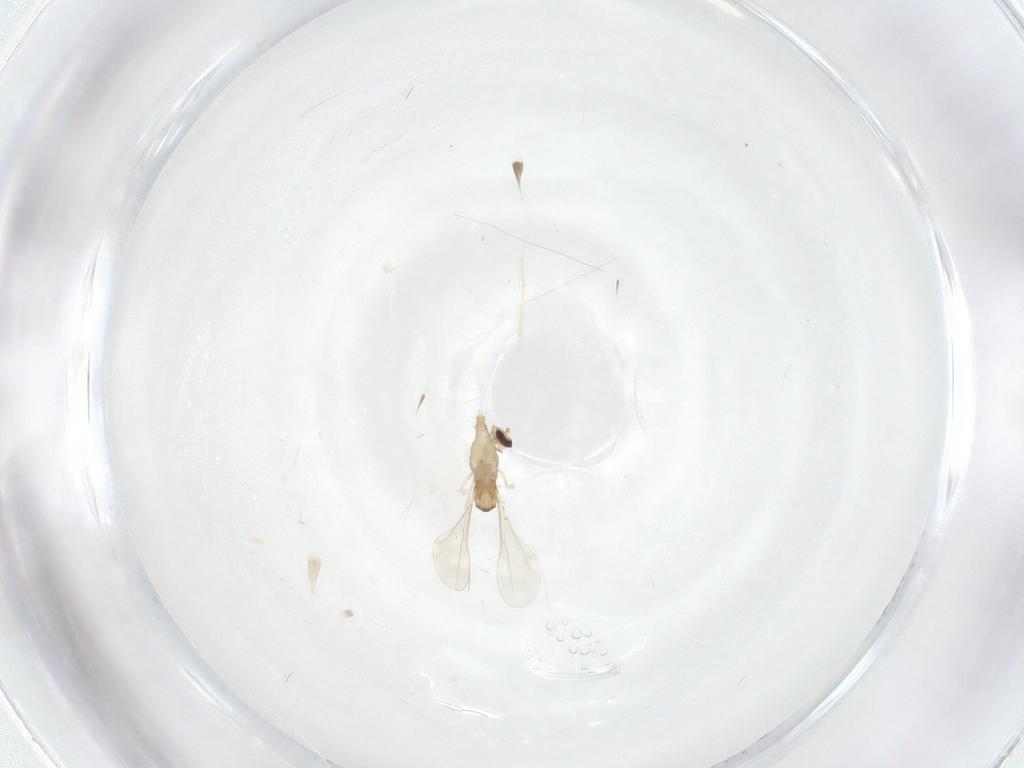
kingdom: Animalia
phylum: Arthropoda
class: Insecta
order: Diptera
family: Cecidomyiidae
